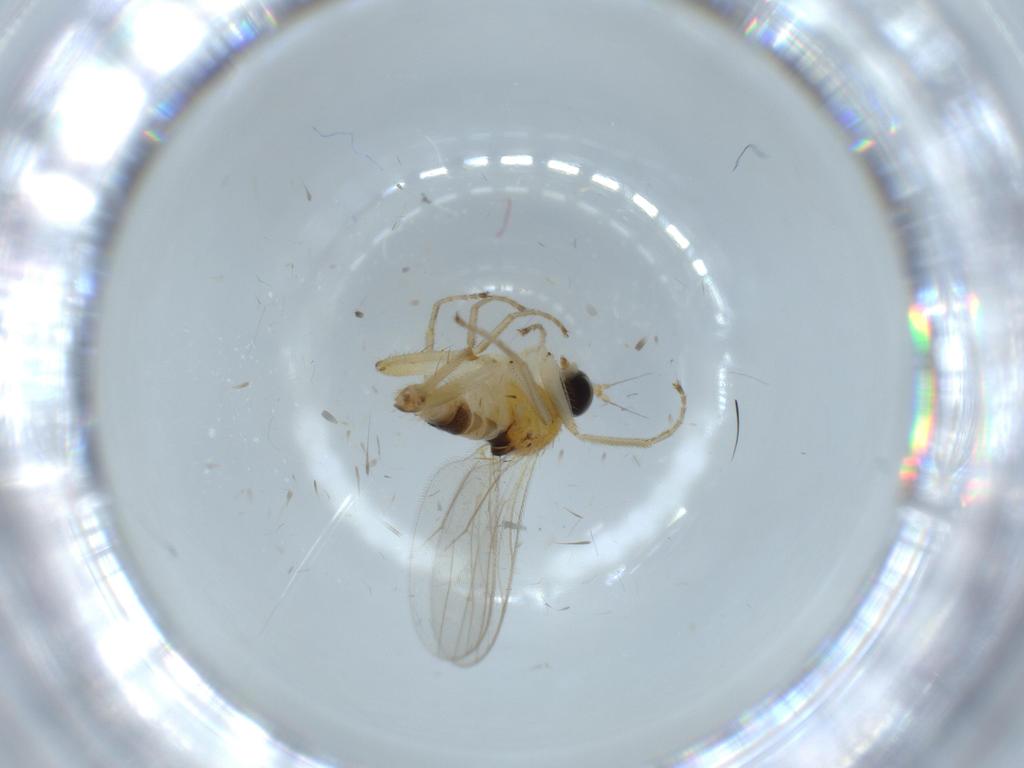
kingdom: Animalia
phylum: Arthropoda
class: Insecta
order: Diptera
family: Hybotidae
